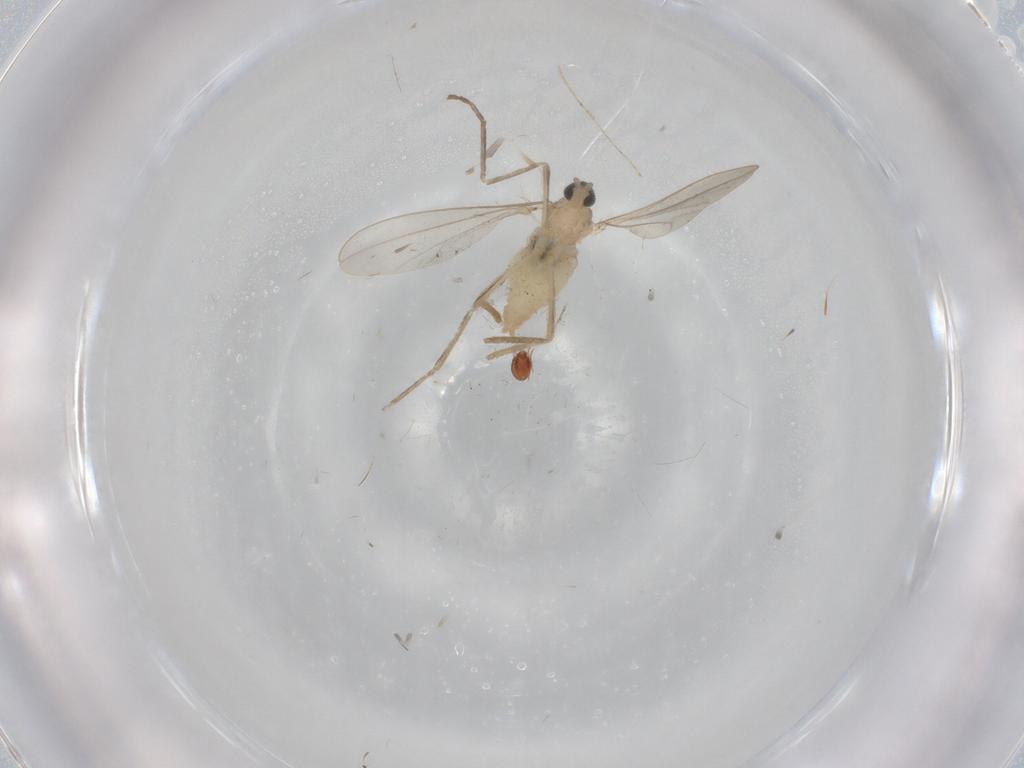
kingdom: Animalia
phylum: Arthropoda
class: Insecta
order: Diptera
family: Cecidomyiidae
